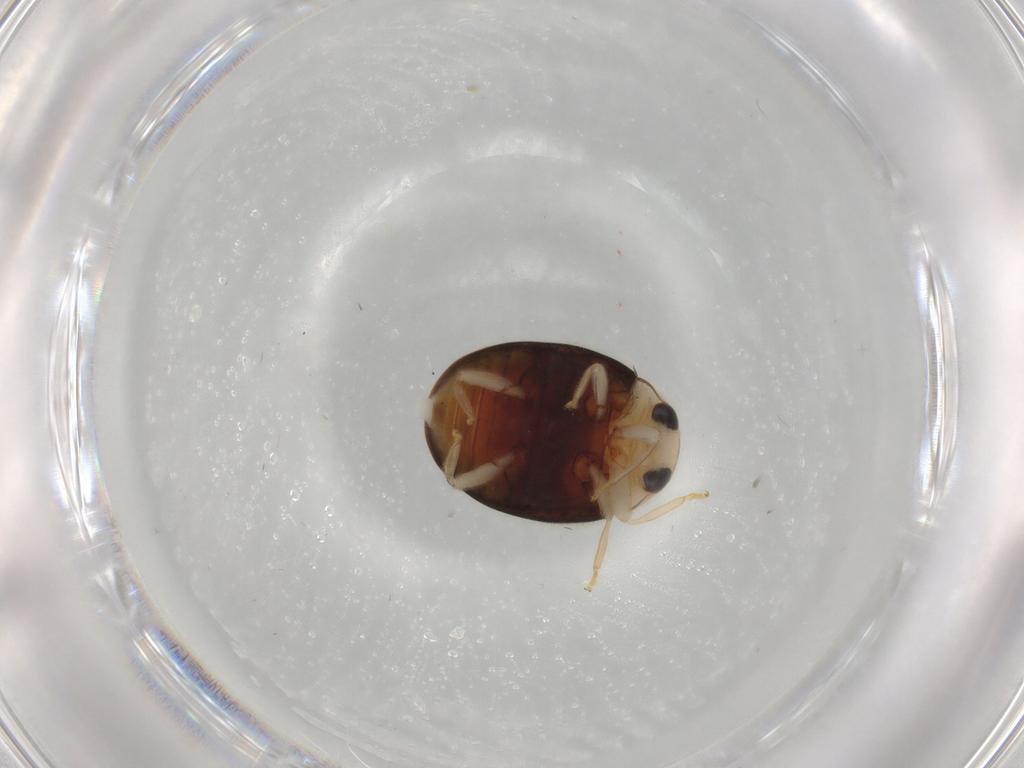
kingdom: Animalia
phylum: Arthropoda
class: Insecta
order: Coleoptera
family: Coccinellidae
